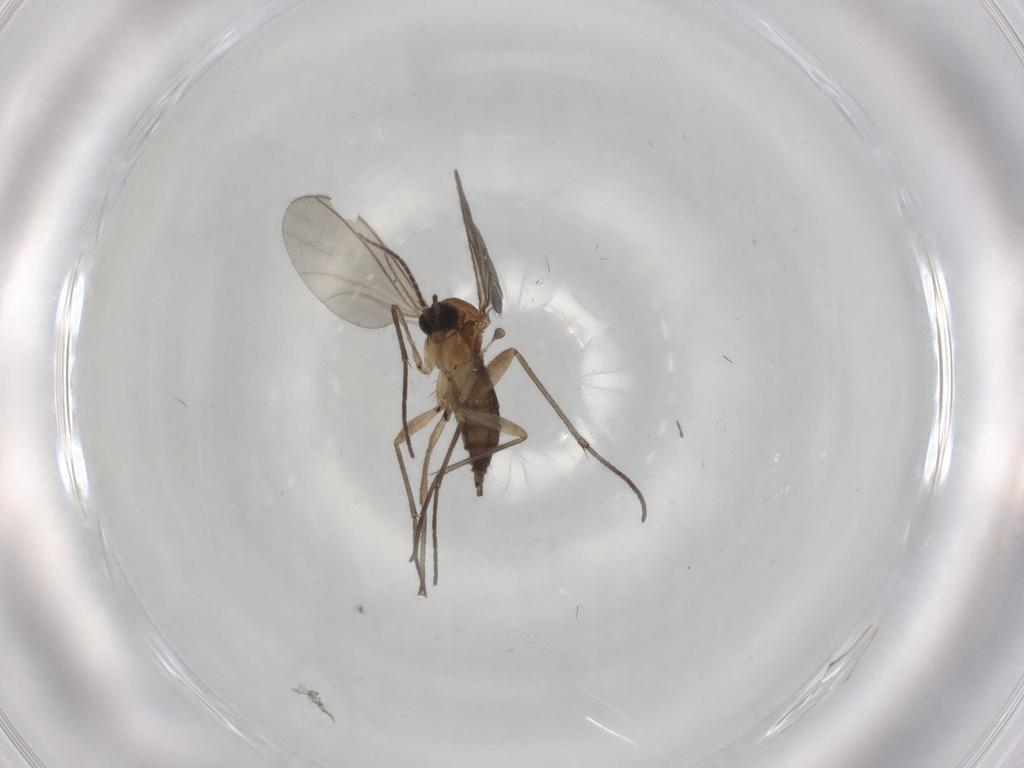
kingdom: Animalia
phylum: Arthropoda
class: Insecta
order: Diptera
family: Sciaridae
